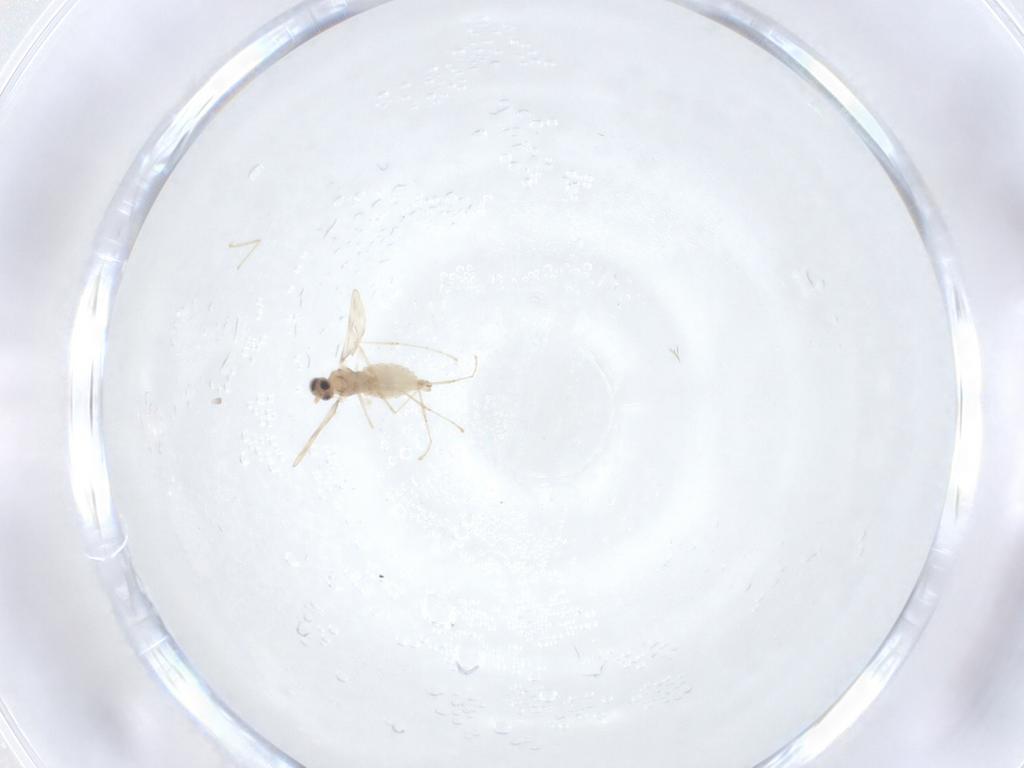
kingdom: Animalia
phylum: Arthropoda
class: Insecta
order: Diptera
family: Cecidomyiidae
